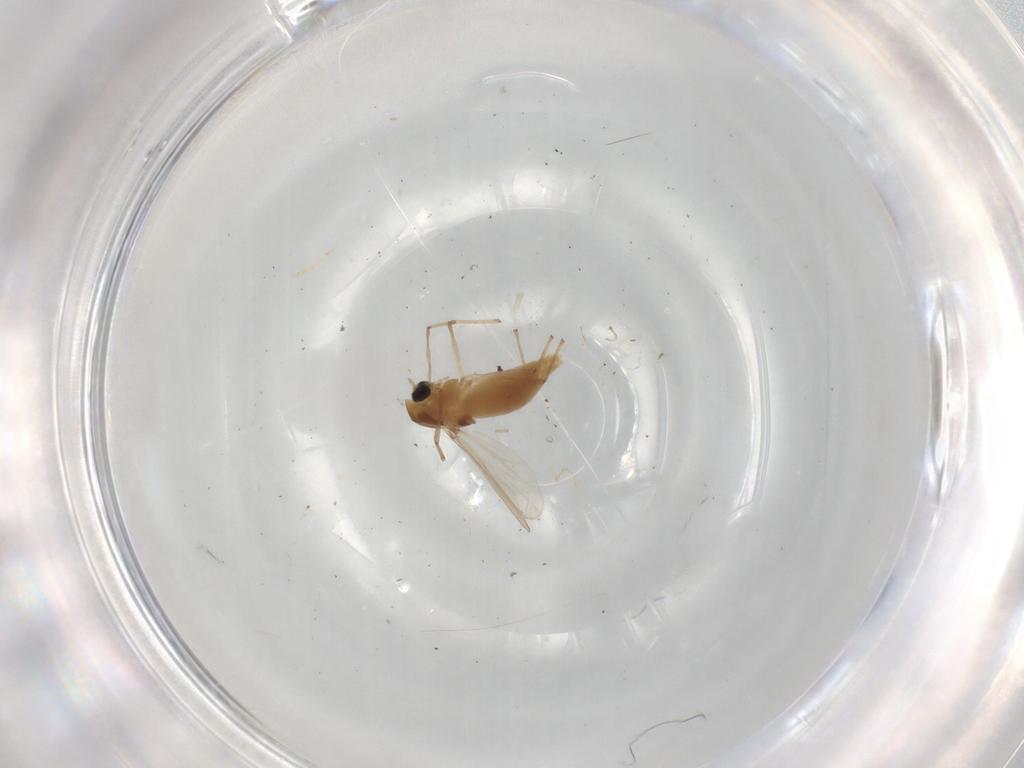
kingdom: Animalia
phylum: Arthropoda
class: Insecta
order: Diptera
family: Chironomidae
